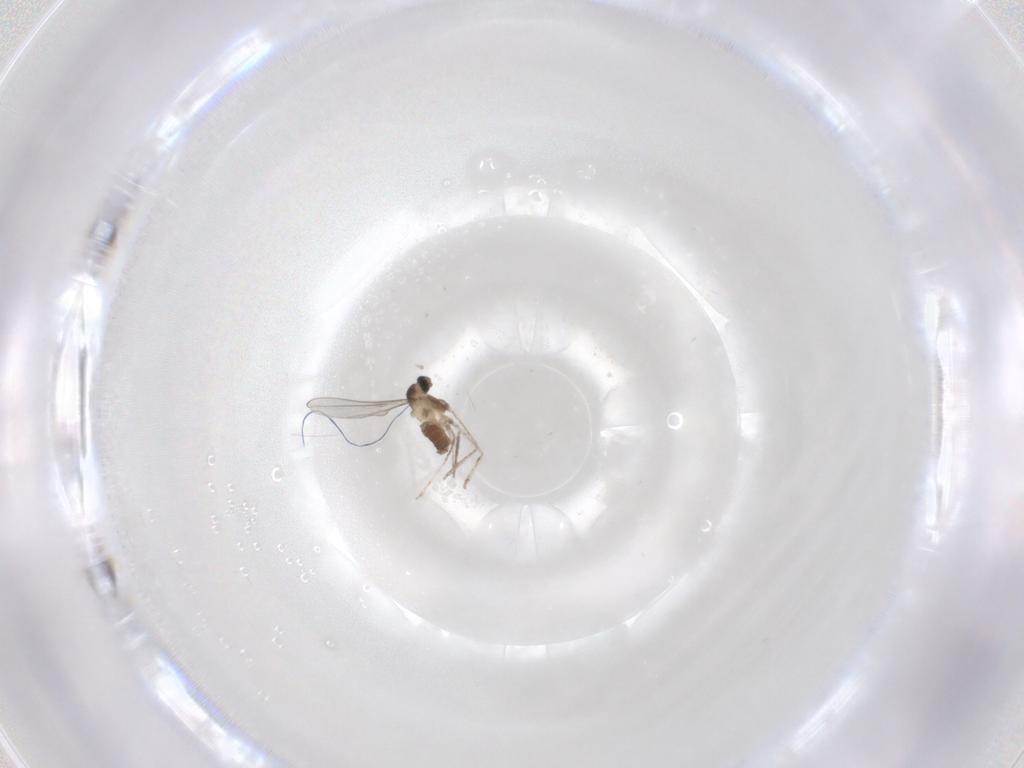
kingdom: Animalia
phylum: Arthropoda
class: Insecta
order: Diptera
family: Cecidomyiidae
